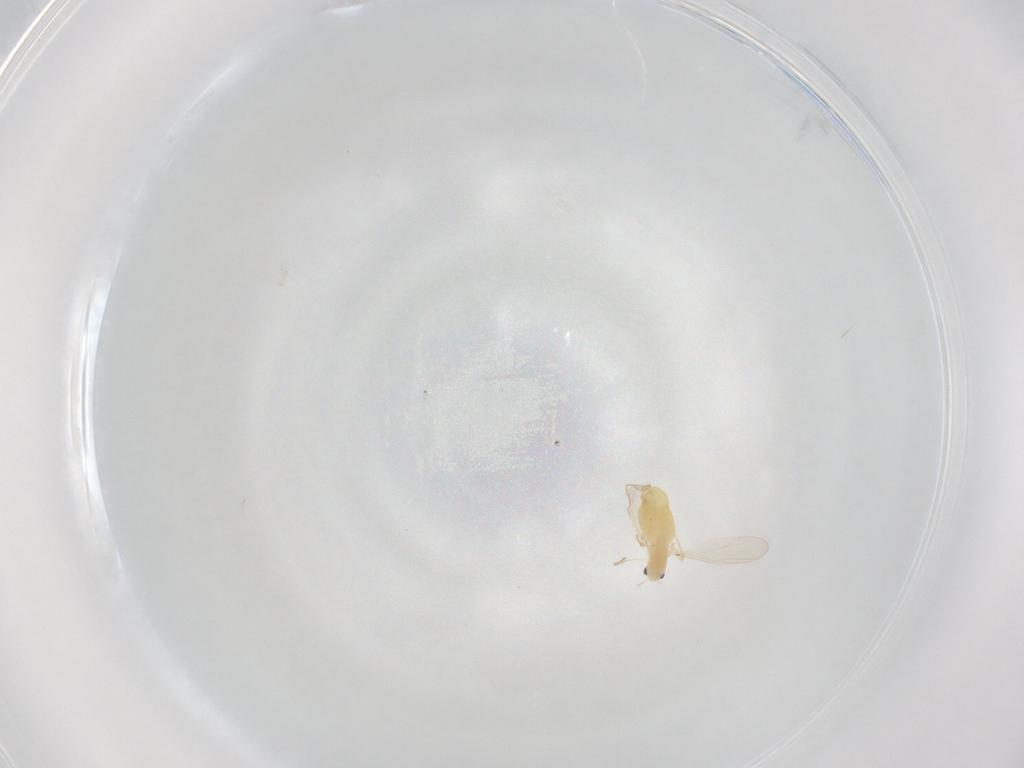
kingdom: Animalia
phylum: Arthropoda
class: Insecta
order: Diptera
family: Chironomidae
